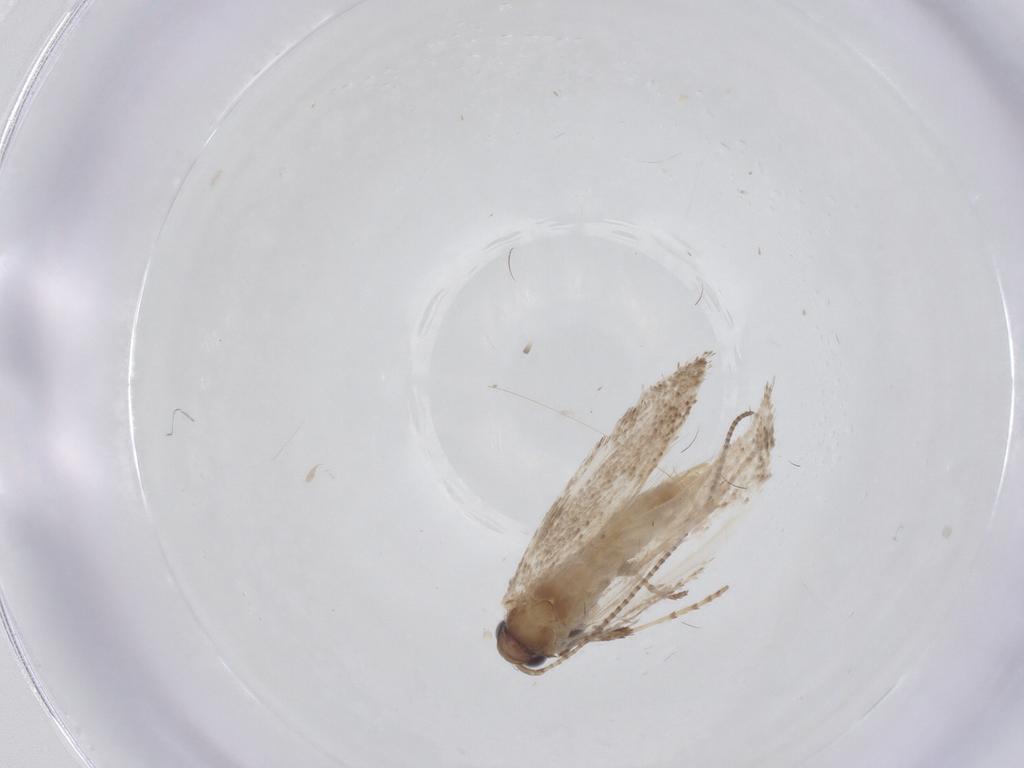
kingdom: Animalia
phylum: Arthropoda
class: Insecta
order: Lepidoptera
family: Gracillariidae
